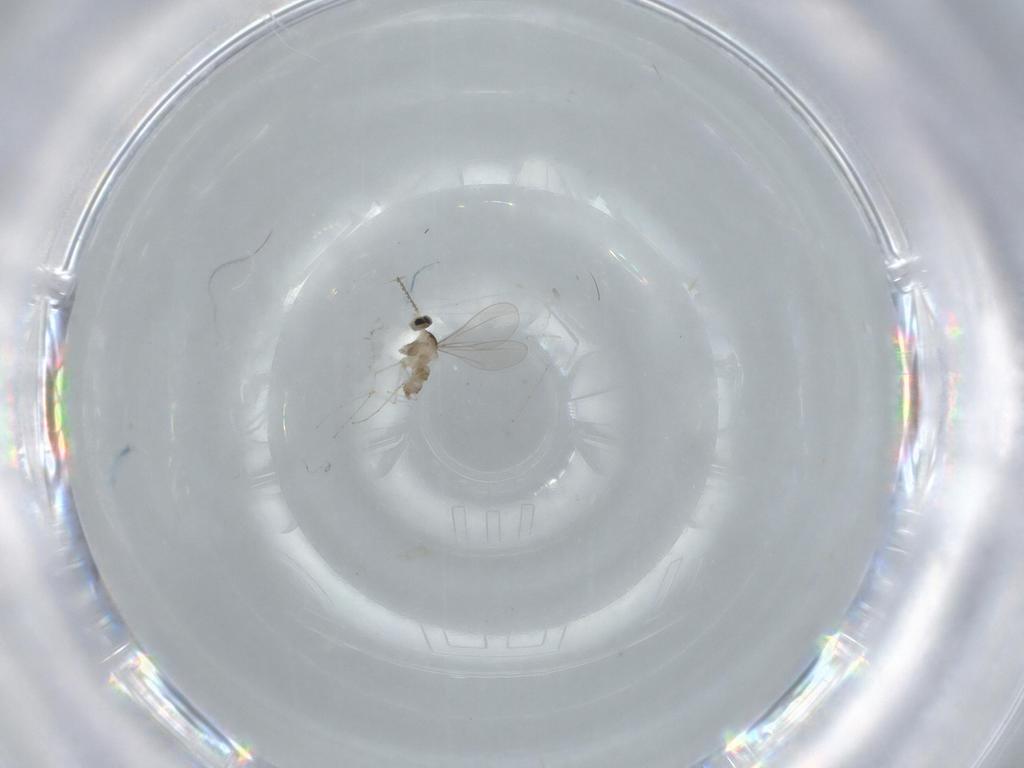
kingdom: Animalia
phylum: Arthropoda
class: Insecta
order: Diptera
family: Cecidomyiidae
